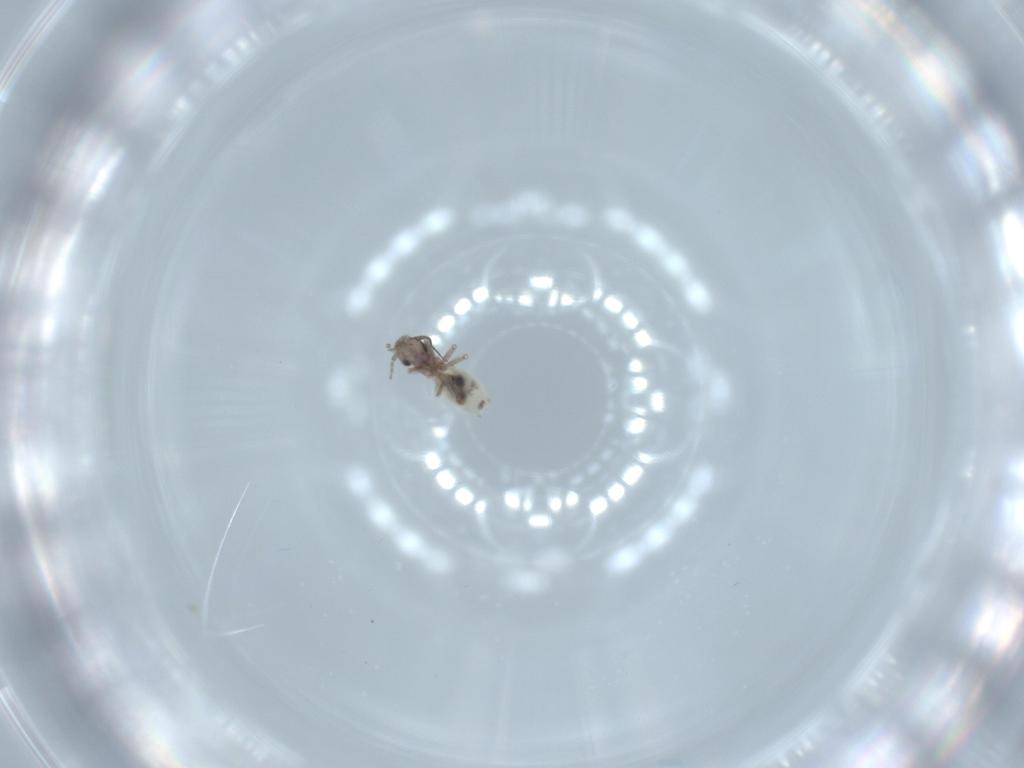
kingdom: Animalia
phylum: Arthropoda
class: Insecta
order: Psocodea
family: Lepidopsocidae
